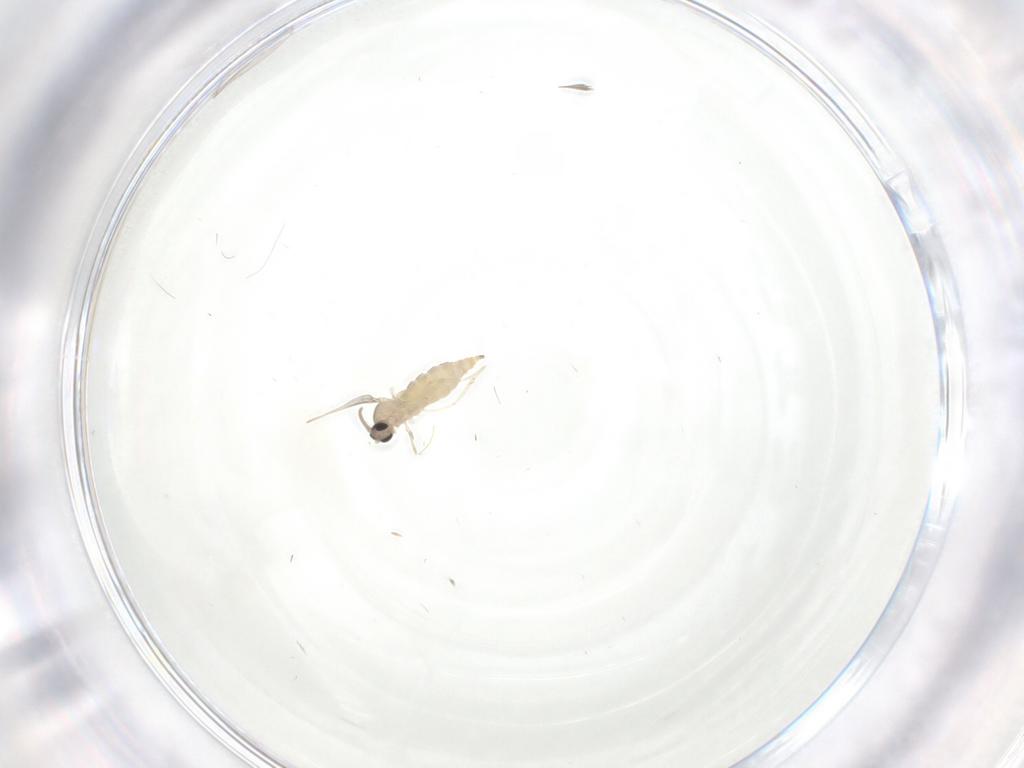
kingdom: Animalia
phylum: Arthropoda
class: Insecta
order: Diptera
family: Cecidomyiidae
